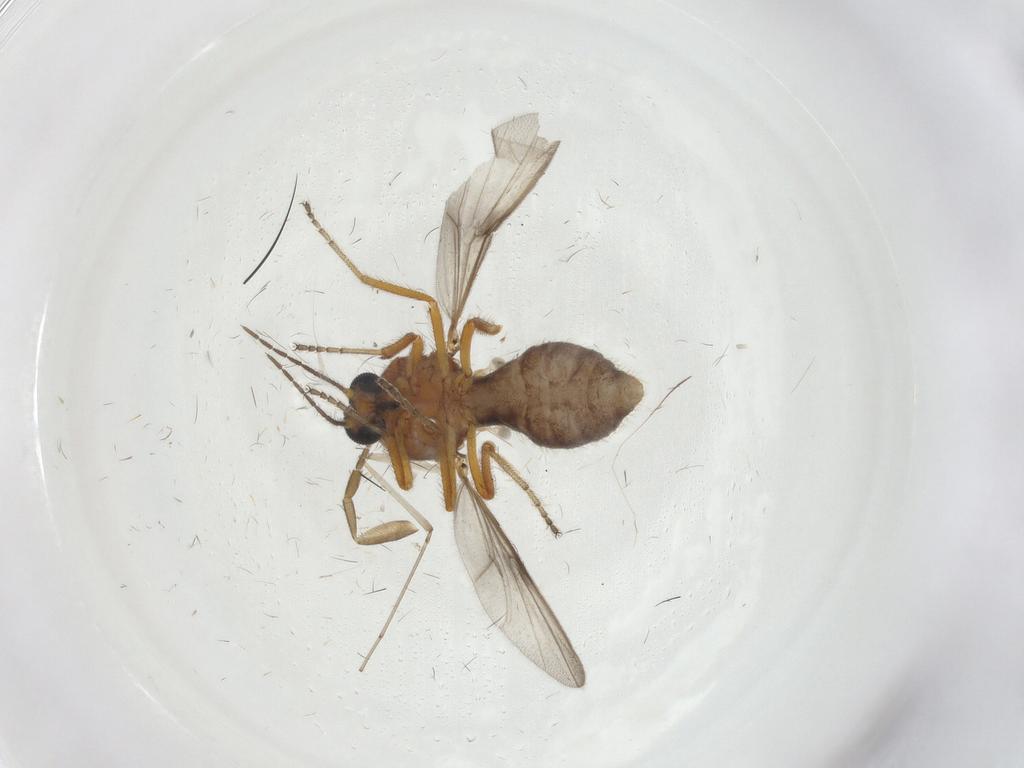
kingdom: Animalia
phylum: Arthropoda
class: Insecta
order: Diptera
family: Ceratopogonidae
